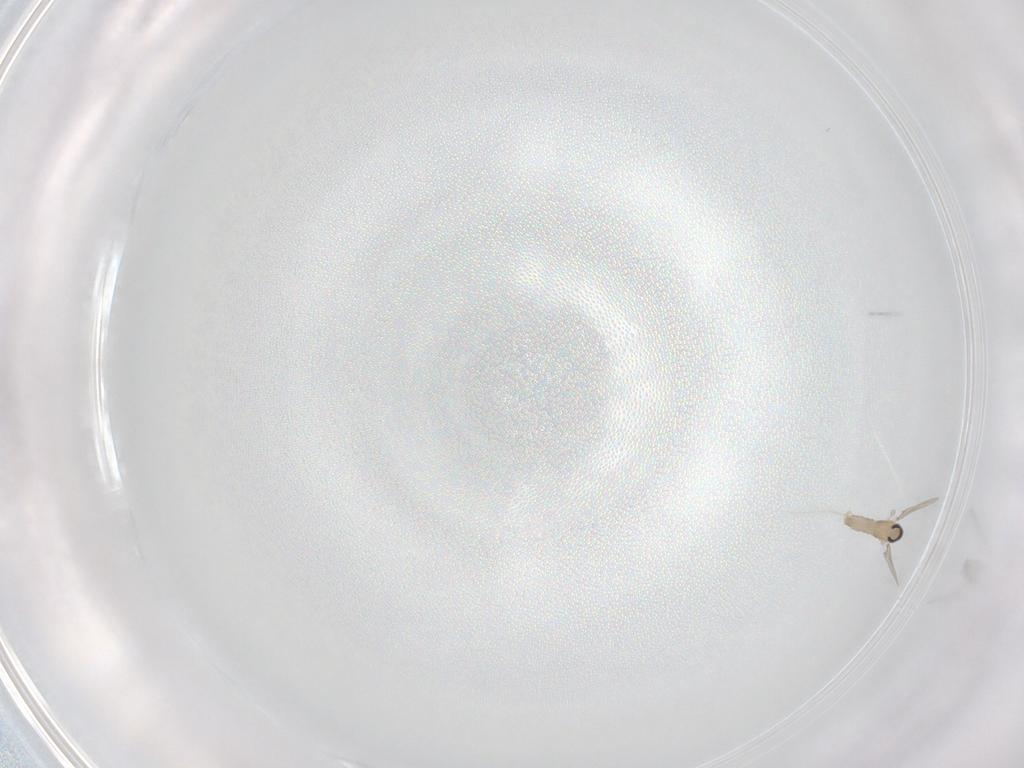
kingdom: Animalia
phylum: Arthropoda
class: Insecta
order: Diptera
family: Cecidomyiidae
